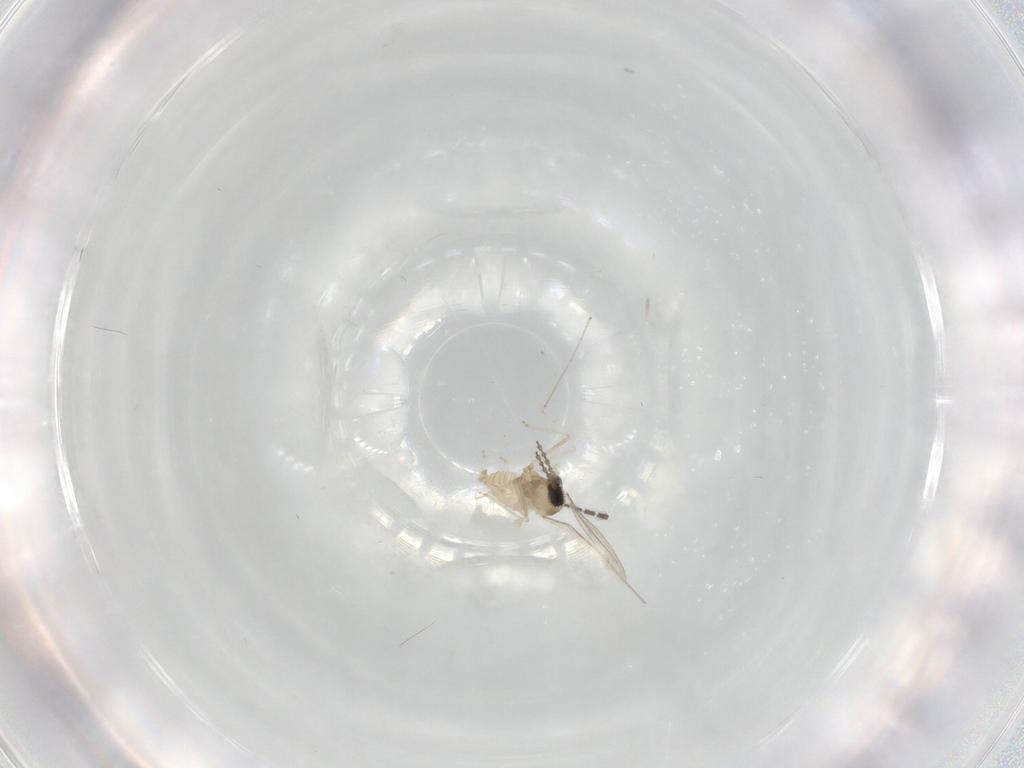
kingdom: Animalia
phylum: Arthropoda
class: Insecta
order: Diptera
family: Cecidomyiidae
